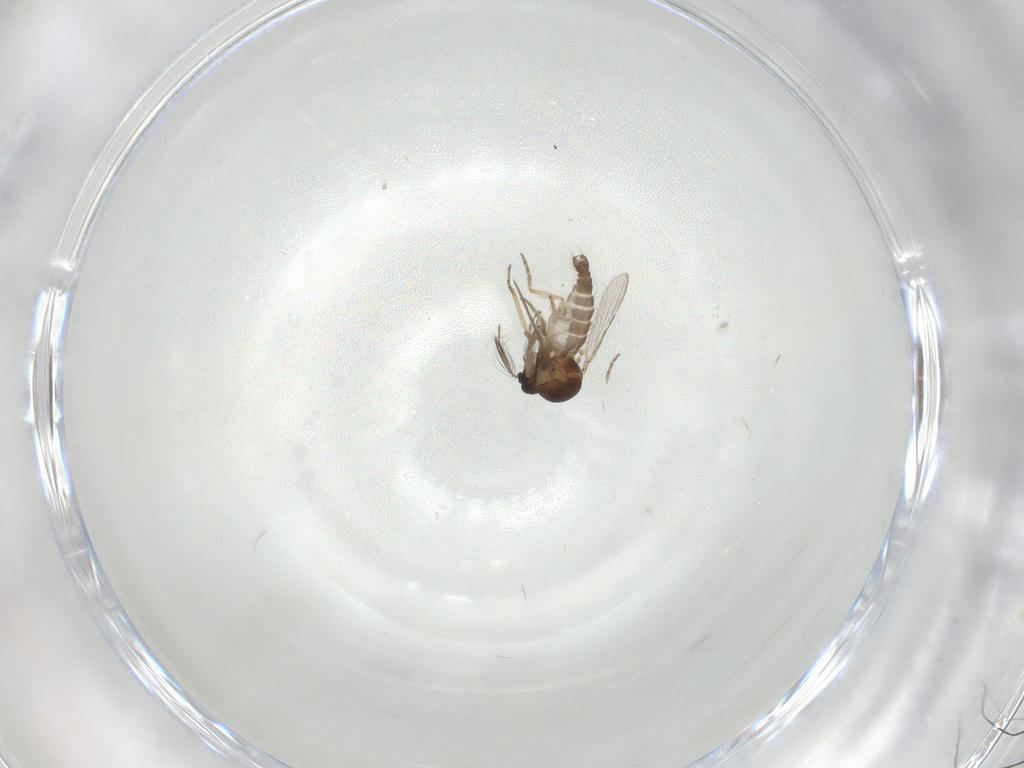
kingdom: Animalia
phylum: Arthropoda
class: Insecta
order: Diptera
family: Ceratopogonidae
